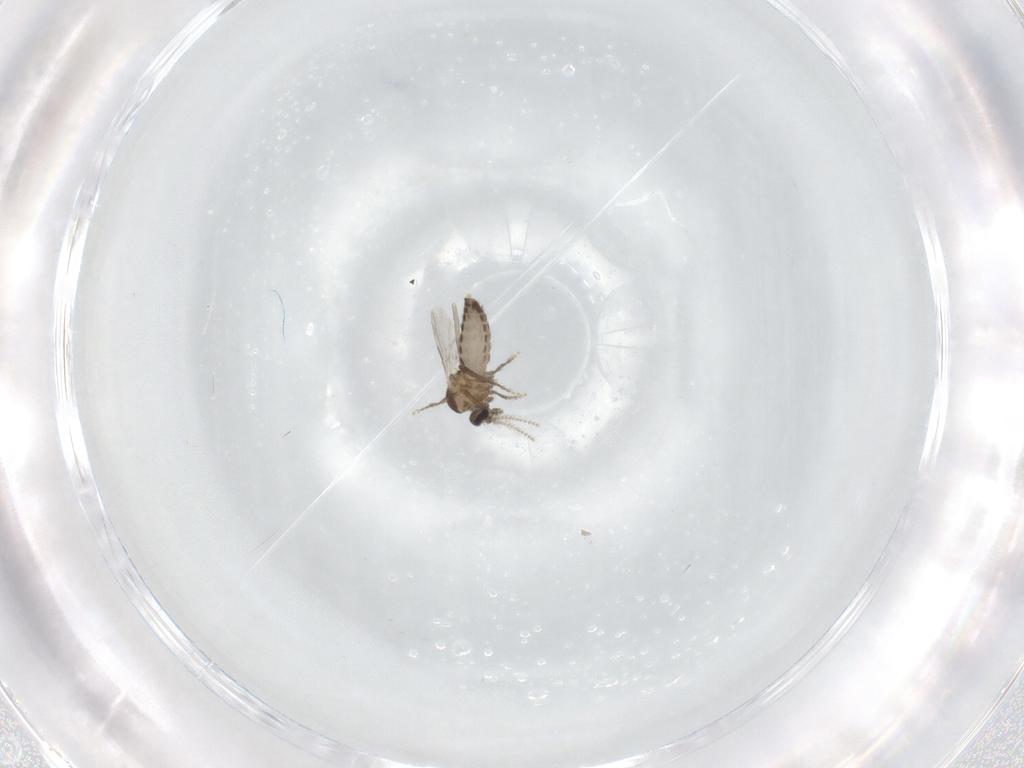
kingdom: Animalia
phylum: Arthropoda
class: Insecta
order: Diptera
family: Ceratopogonidae
